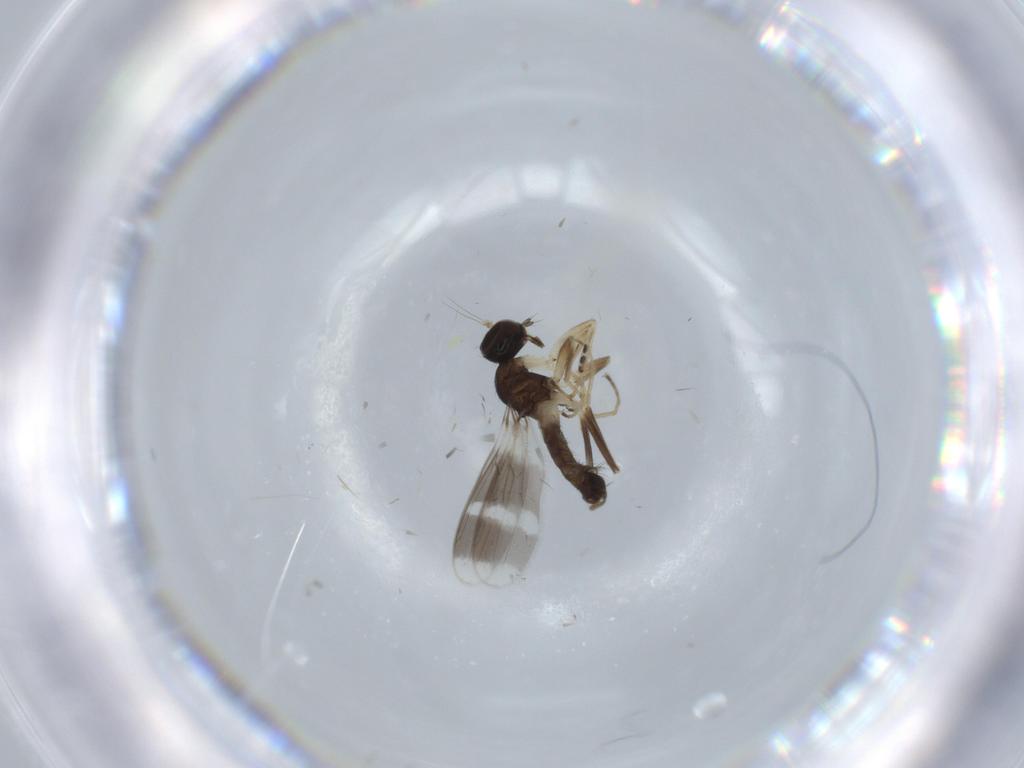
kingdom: Animalia
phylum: Arthropoda
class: Insecta
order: Diptera
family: Hybotidae
